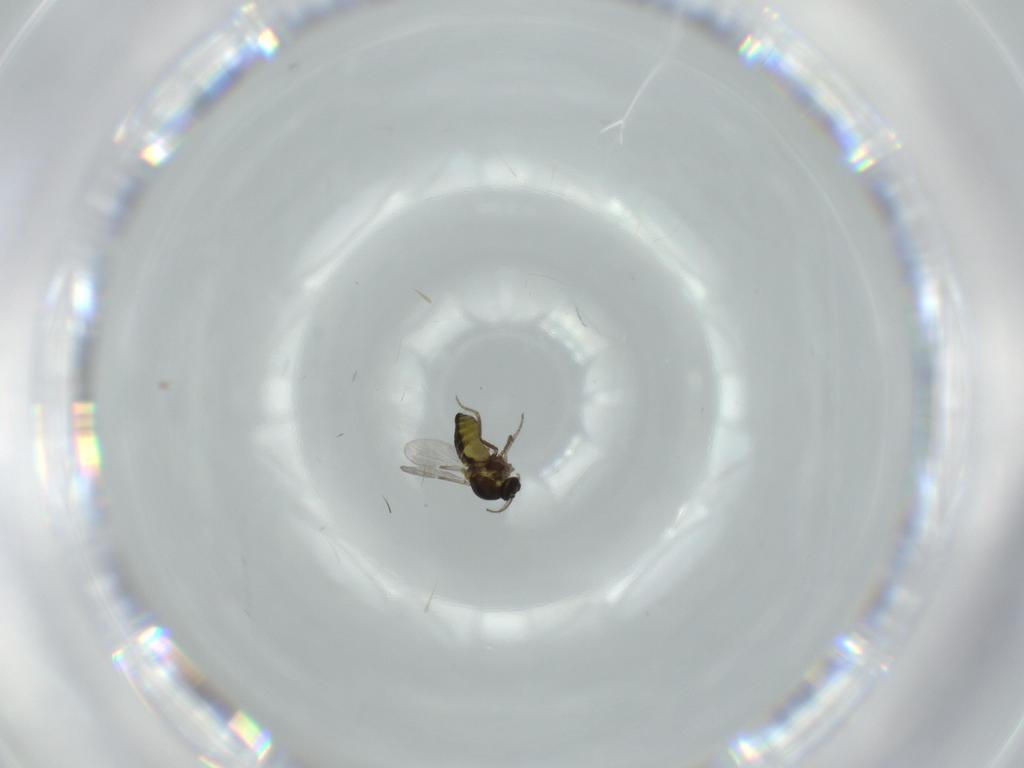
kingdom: Animalia
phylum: Arthropoda
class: Insecta
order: Diptera
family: Ceratopogonidae
